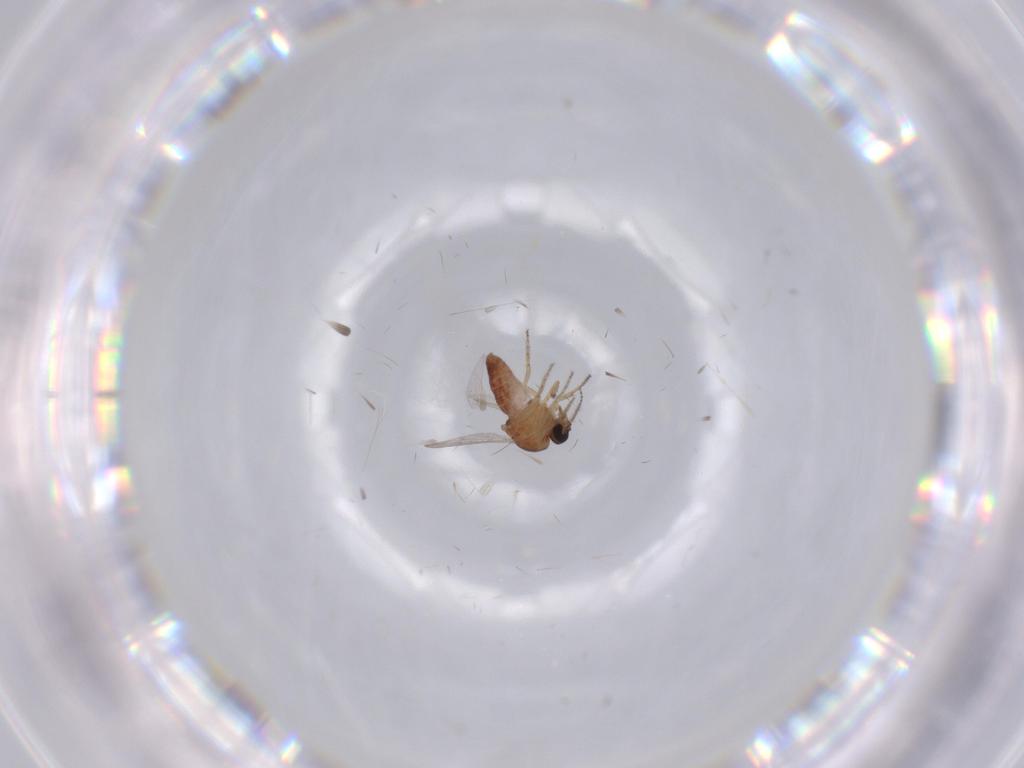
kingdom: Animalia
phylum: Arthropoda
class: Insecta
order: Diptera
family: Ceratopogonidae
